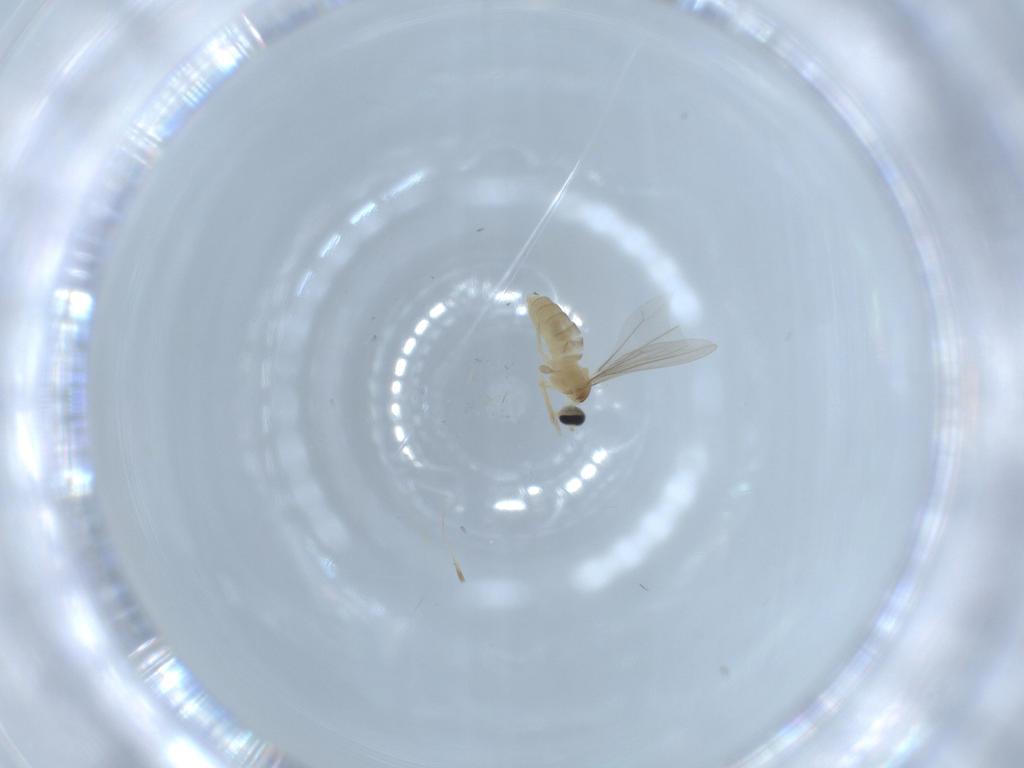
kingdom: Animalia
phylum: Arthropoda
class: Insecta
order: Diptera
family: Cecidomyiidae
